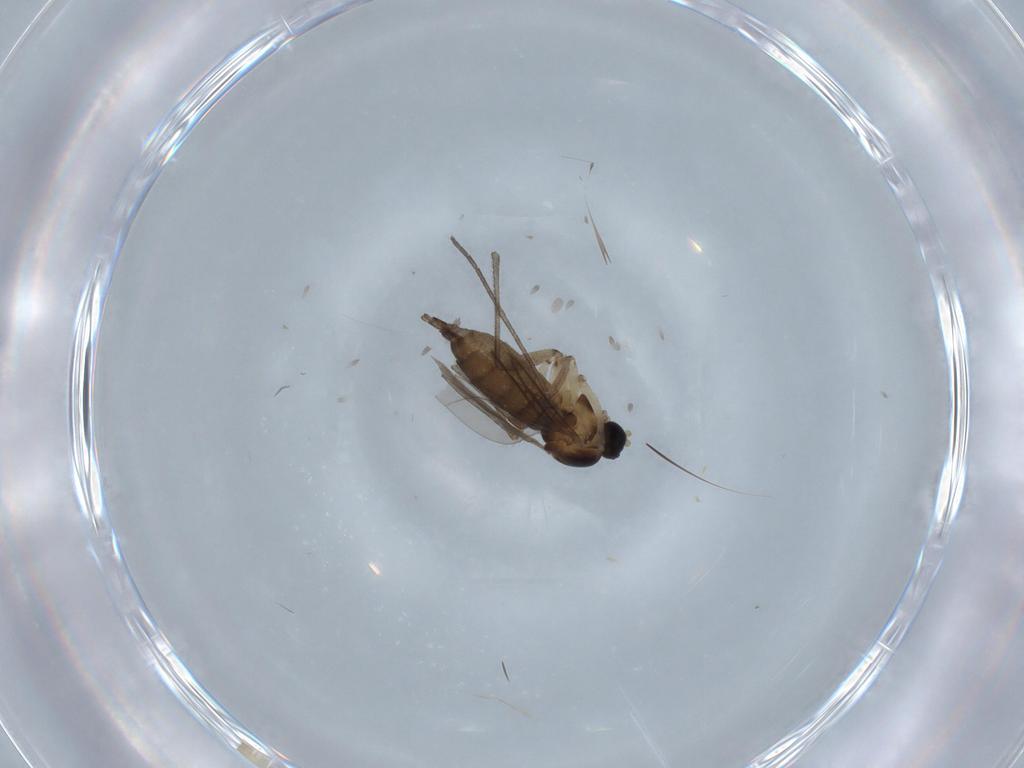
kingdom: Animalia
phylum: Arthropoda
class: Insecta
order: Diptera
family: Sciaridae
